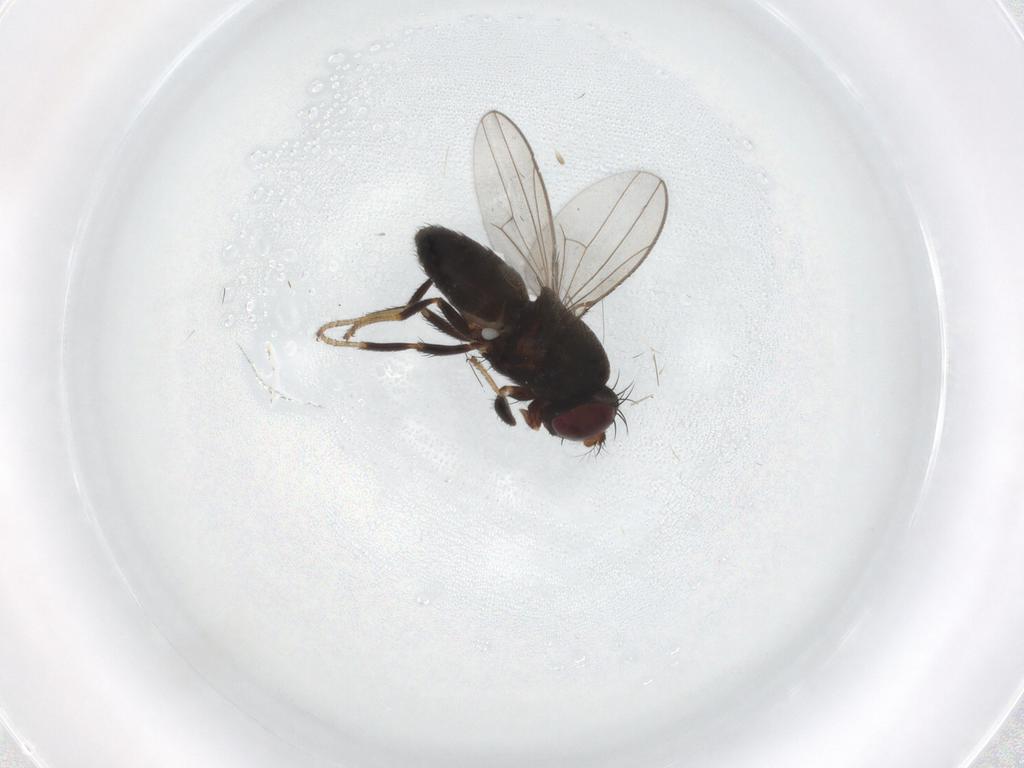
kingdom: Animalia
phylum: Arthropoda
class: Insecta
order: Diptera
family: Ephydridae
